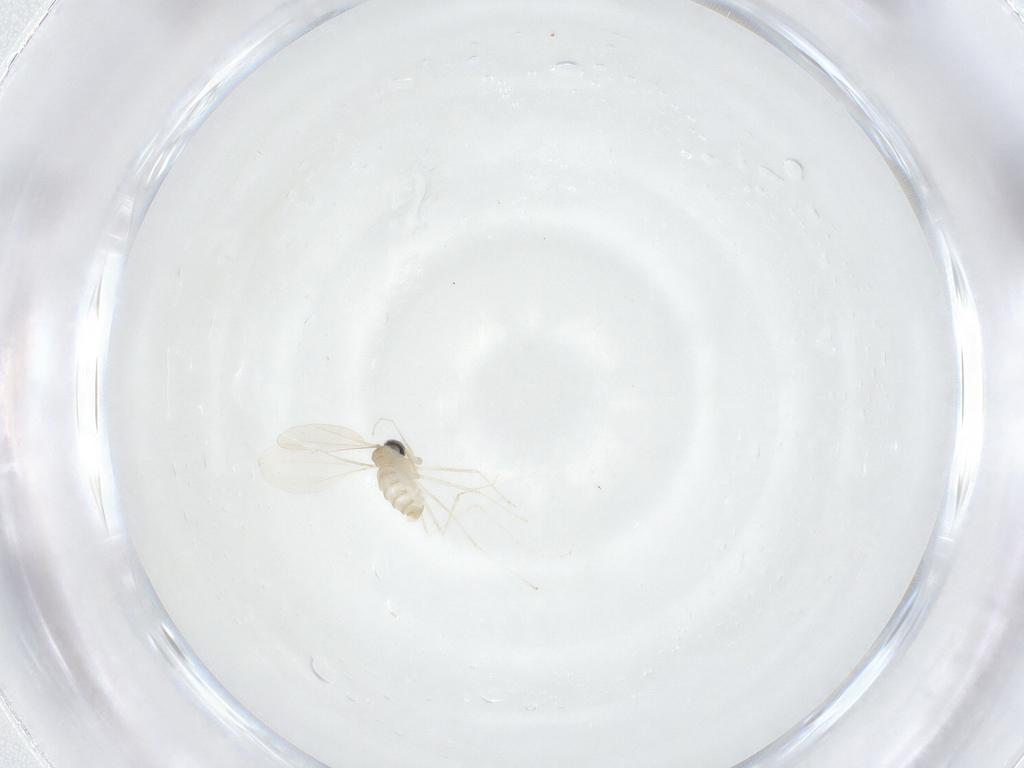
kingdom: Animalia
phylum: Arthropoda
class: Insecta
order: Diptera
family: Cecidomyiidae
